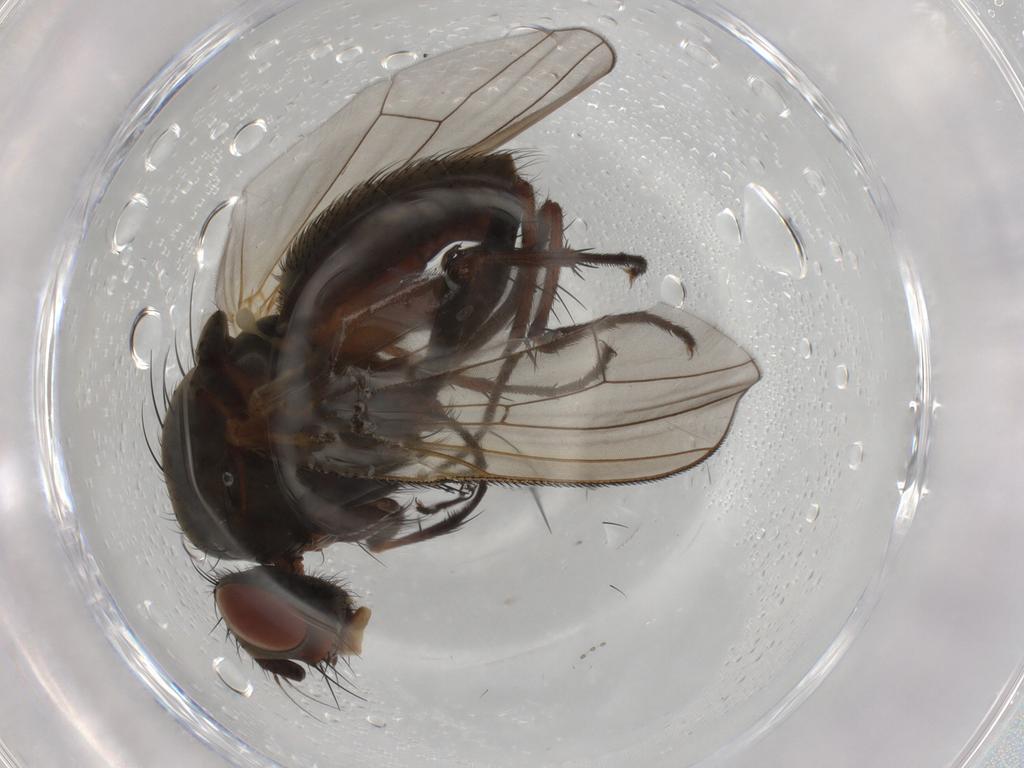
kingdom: Animalia
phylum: Arthropoda
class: Insecta
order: Diptera
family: Anthomyiidae
